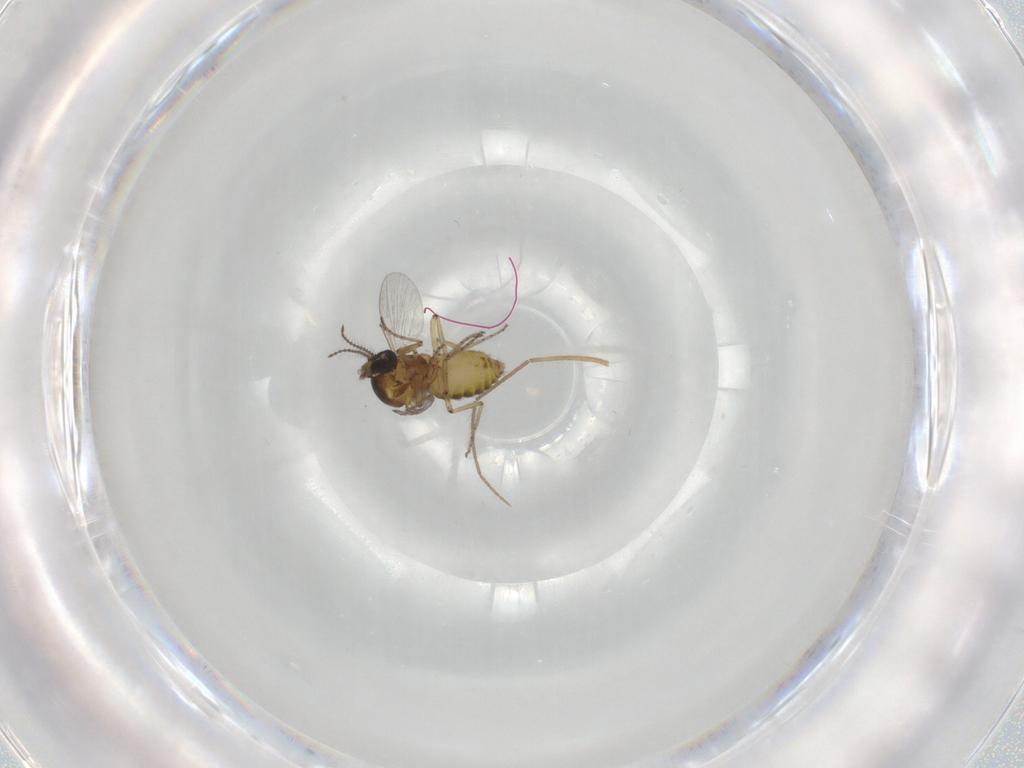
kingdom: Animalia
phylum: Arthropoda
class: Insecta
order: Diptera
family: Ceratopogonidae
